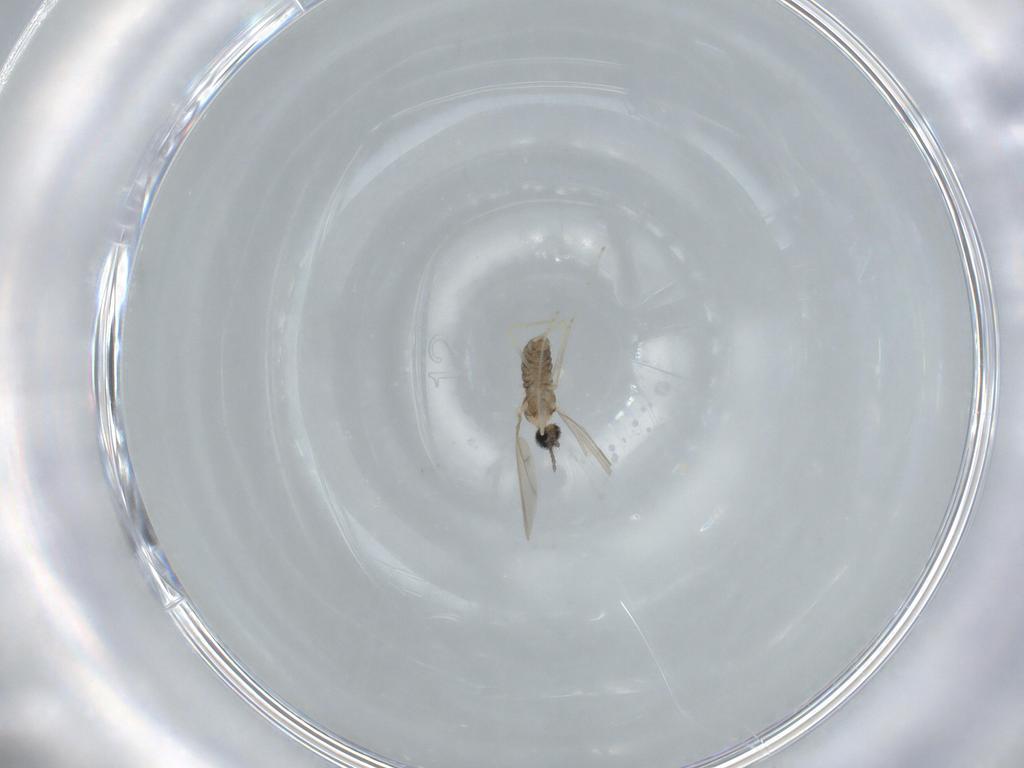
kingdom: Animalia
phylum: Arthropoda
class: Insecta
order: Diptera
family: Cecidomyiidae
